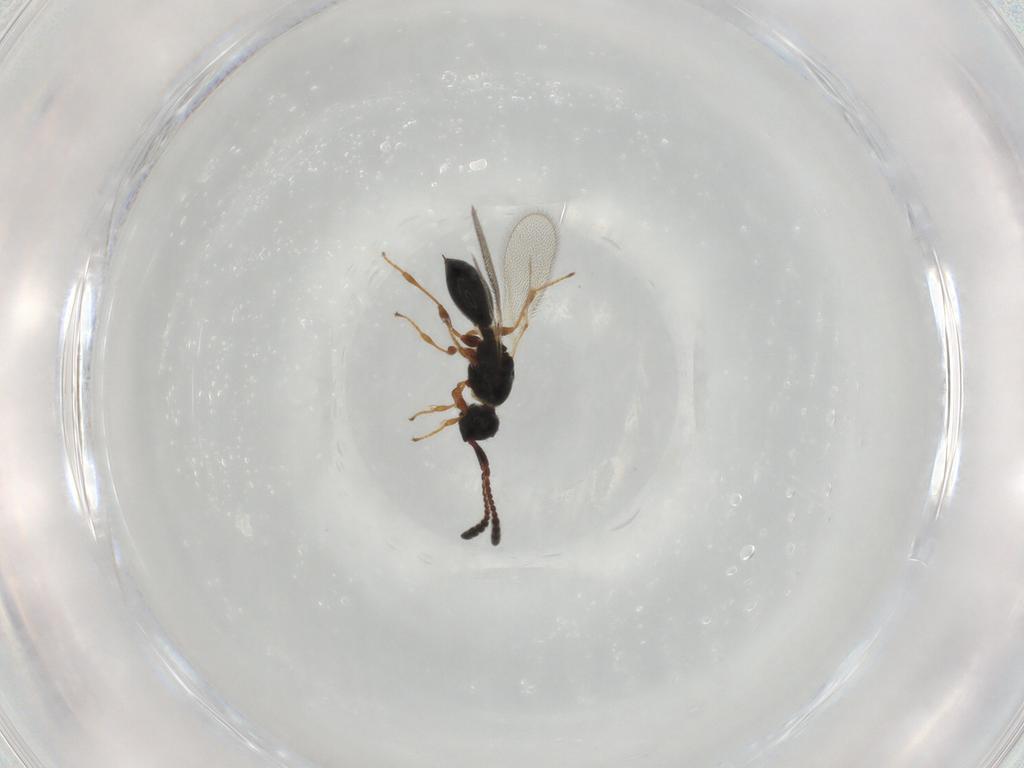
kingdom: Animalia
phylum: Arthropoda
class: Insecta
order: Hymenoptera
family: Diapriidae
